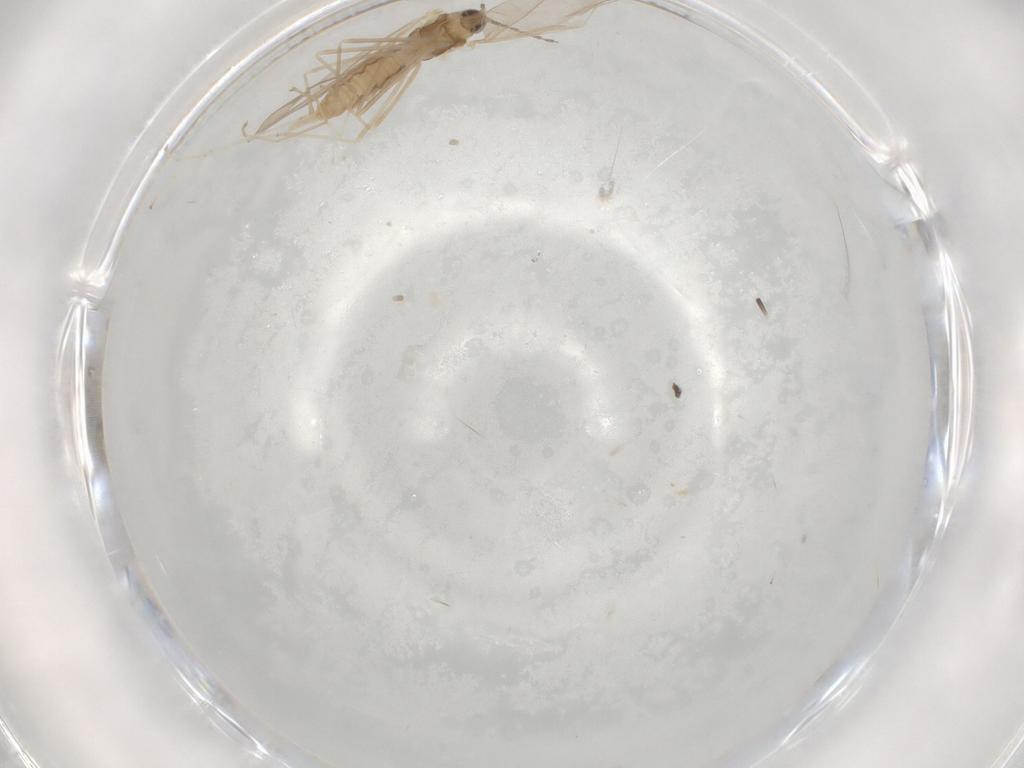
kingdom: Animalia
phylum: Arthropoda
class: Insecta
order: Diptera
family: Cecidomyiidae
